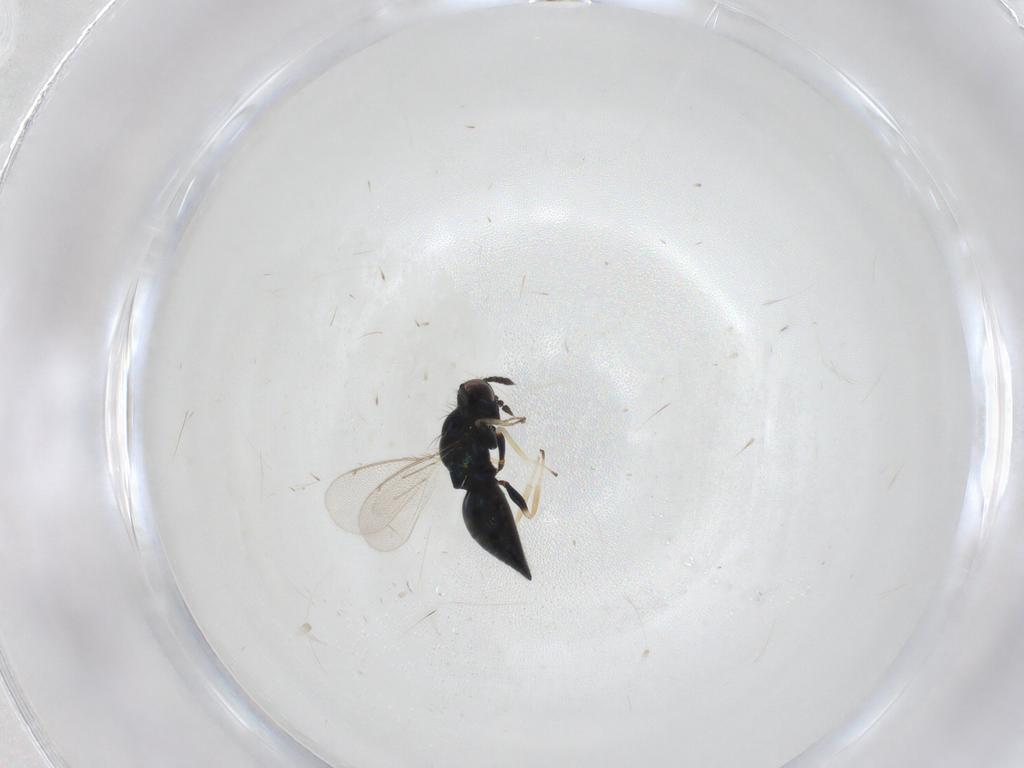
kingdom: Animalia
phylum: Arthropoda
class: Insecta
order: Hymenoptera
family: Eulophidae
